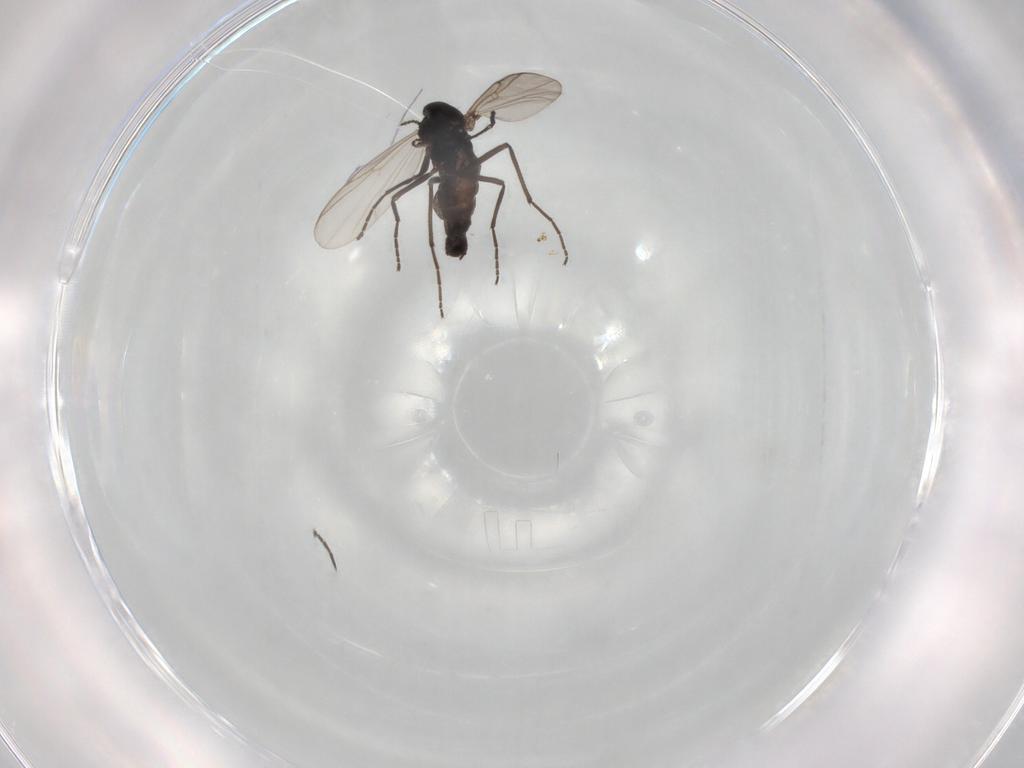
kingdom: Animalia
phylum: Arthropoda
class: Insecta
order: Diptera
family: Chironomidae
